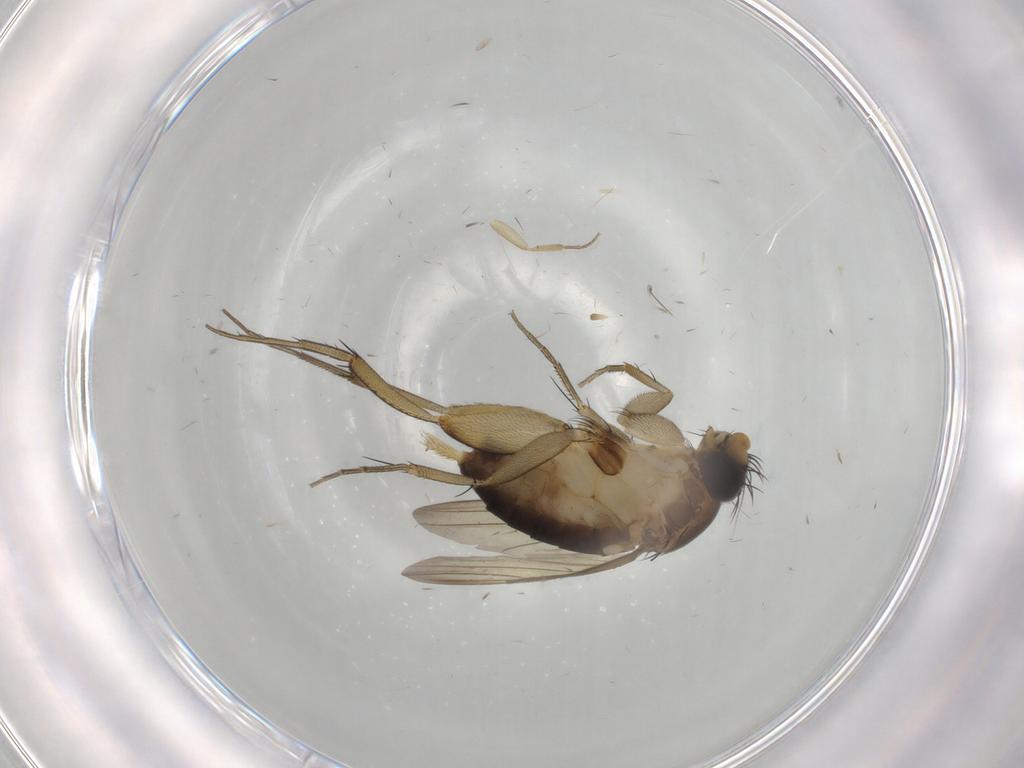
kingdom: Animalia
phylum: Arthropoda
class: Insecta
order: Diptera
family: Phoridae
